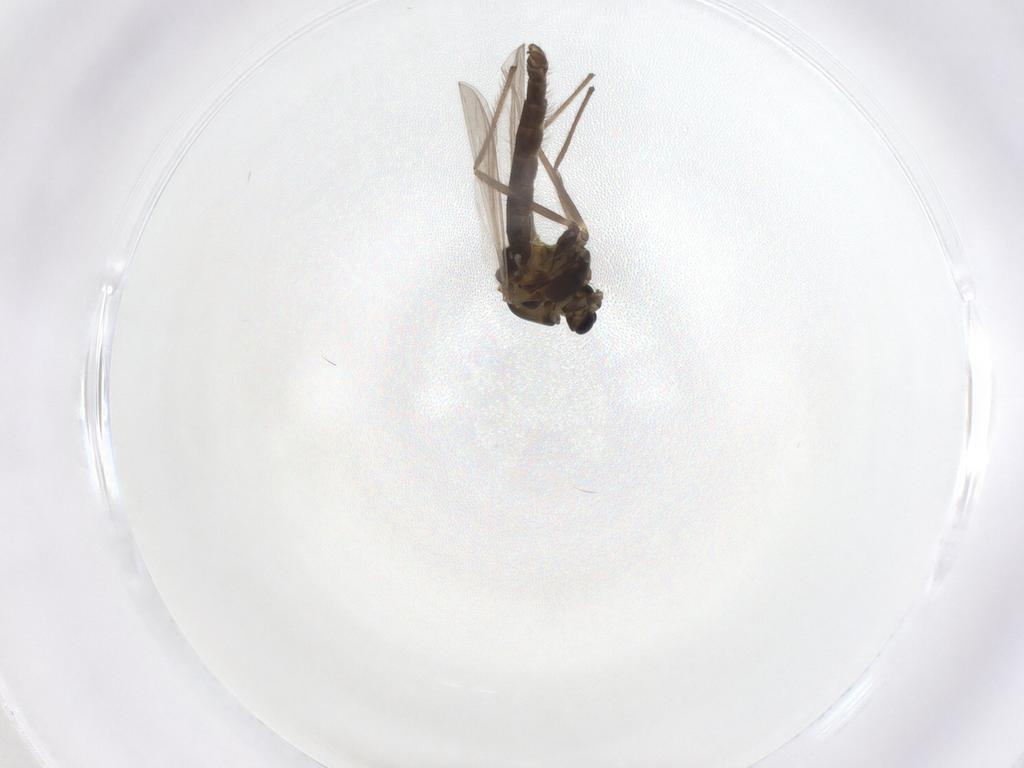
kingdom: Animalia
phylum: Arthropoda
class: Insecta
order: Diptera
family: Chironomidae
